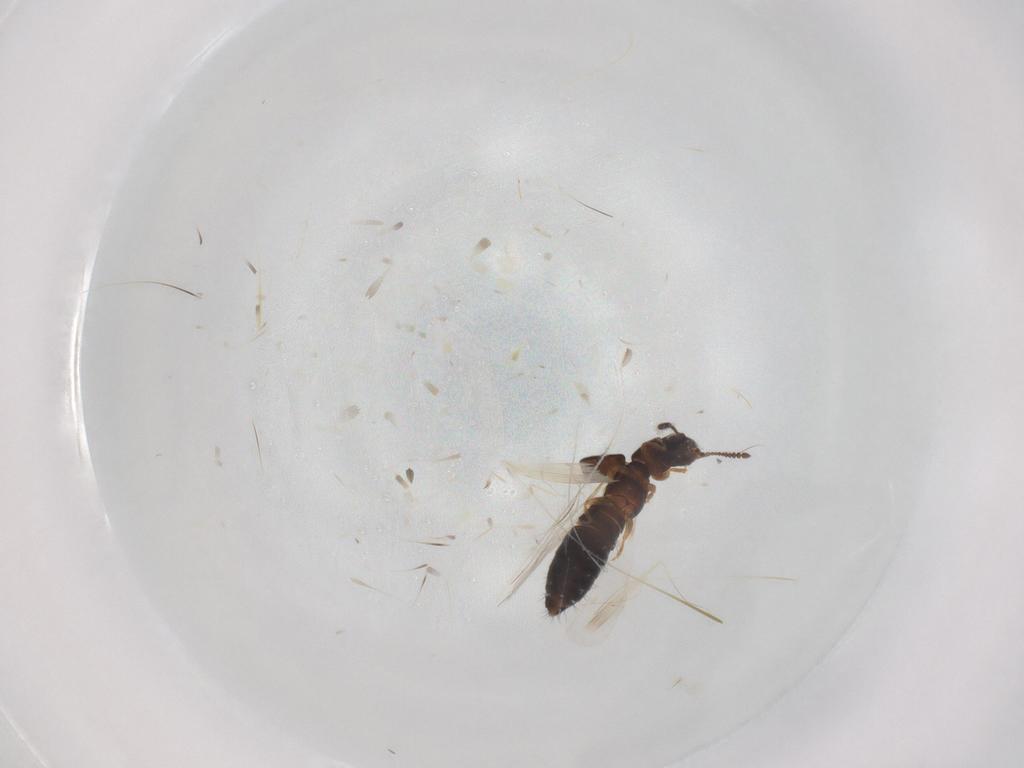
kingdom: Animalia
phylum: Arthropoda
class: Insecta
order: Coleoptera
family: Staphylinidae
